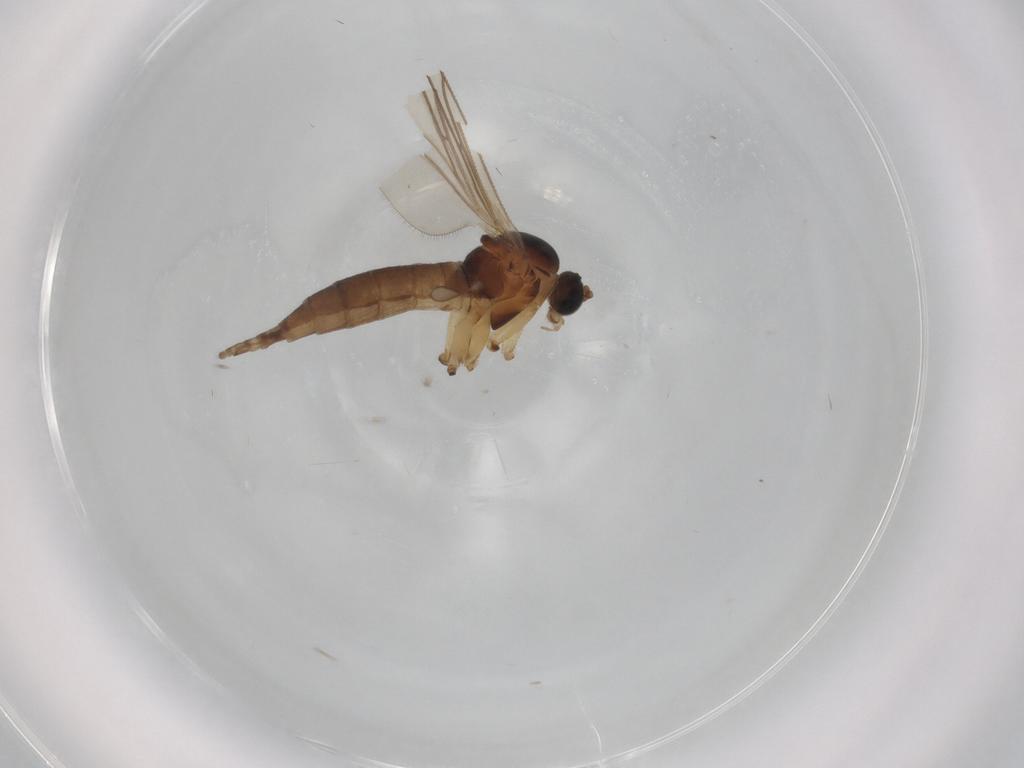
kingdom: Animalia
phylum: Arthropoda
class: Insecta
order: Diptera
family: Sciaridae
